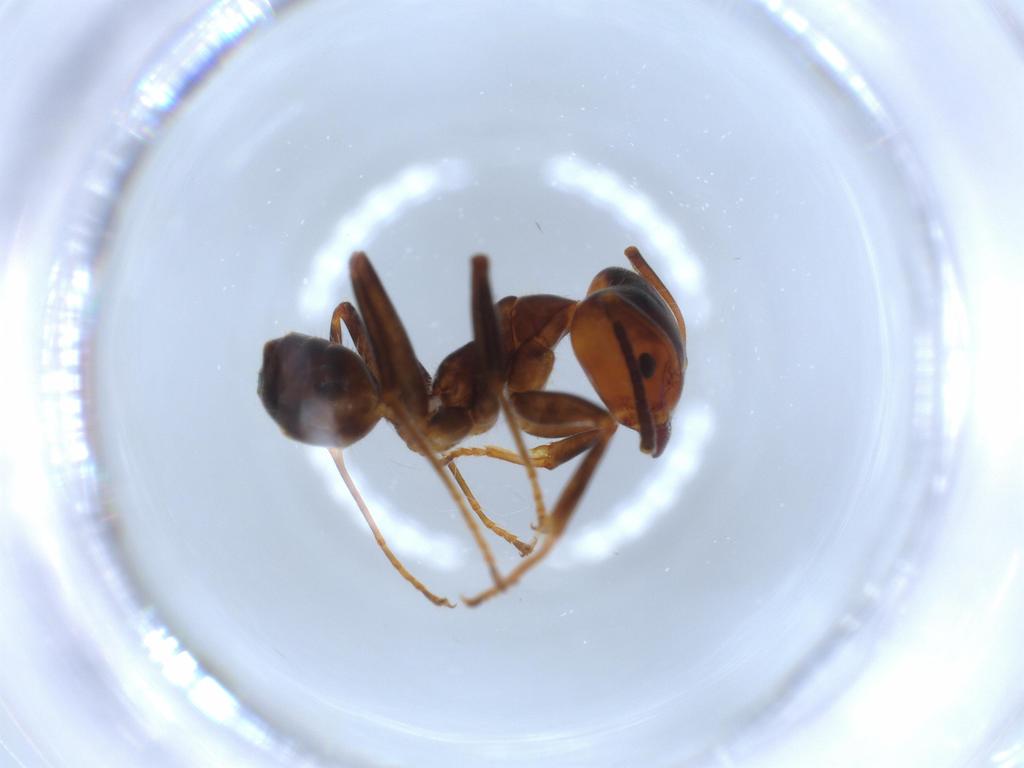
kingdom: Animalia
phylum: Arthropoda
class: Insecta
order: Hymenoptera
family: Formicidae
